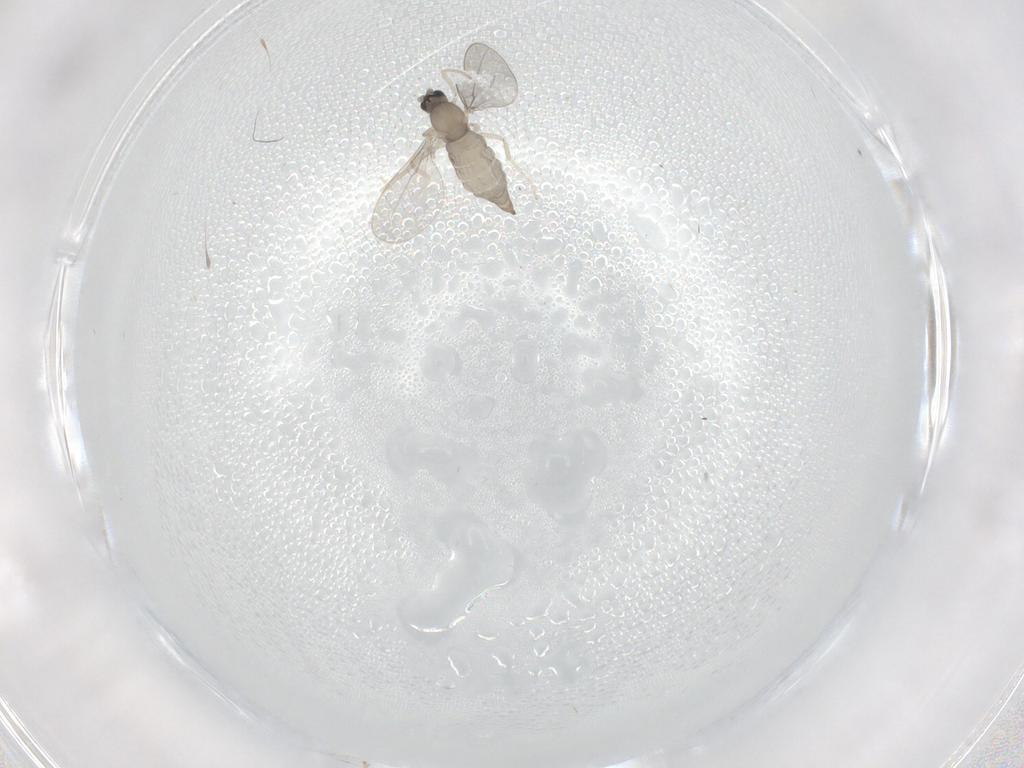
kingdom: Animalia
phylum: Arthropoda
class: Insecta
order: Diptera
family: Cecidomyiidae
